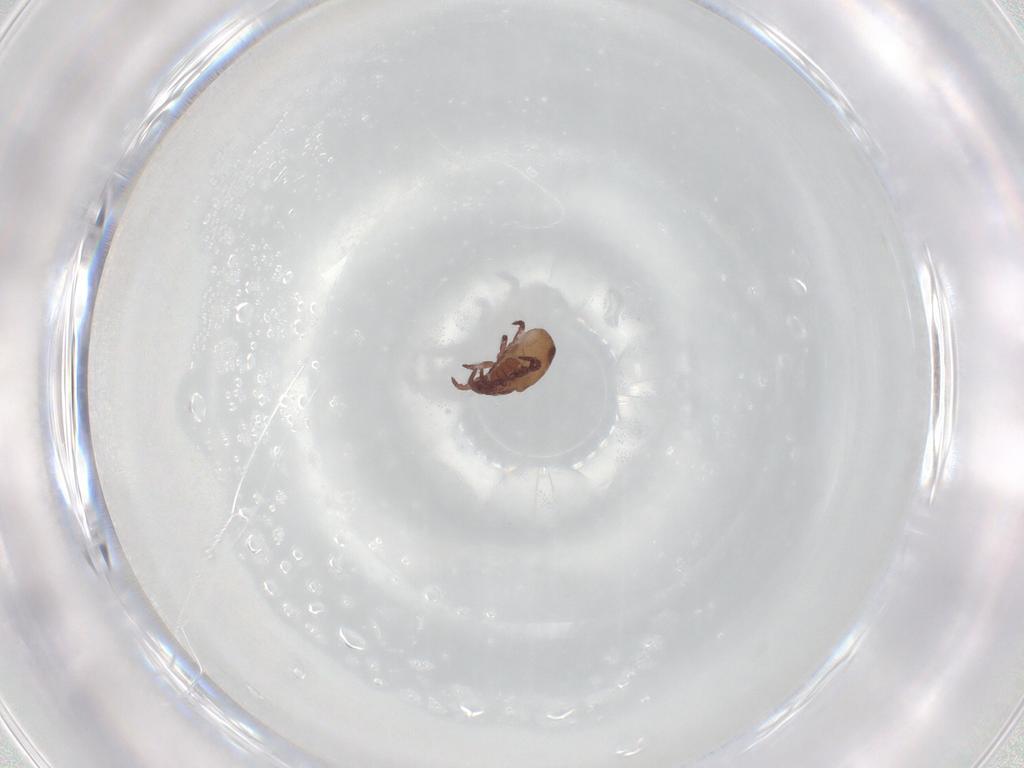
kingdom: Animalia
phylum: Arthropoda
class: Arachnida
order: Sarcoptiformes
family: Hermanniidae
